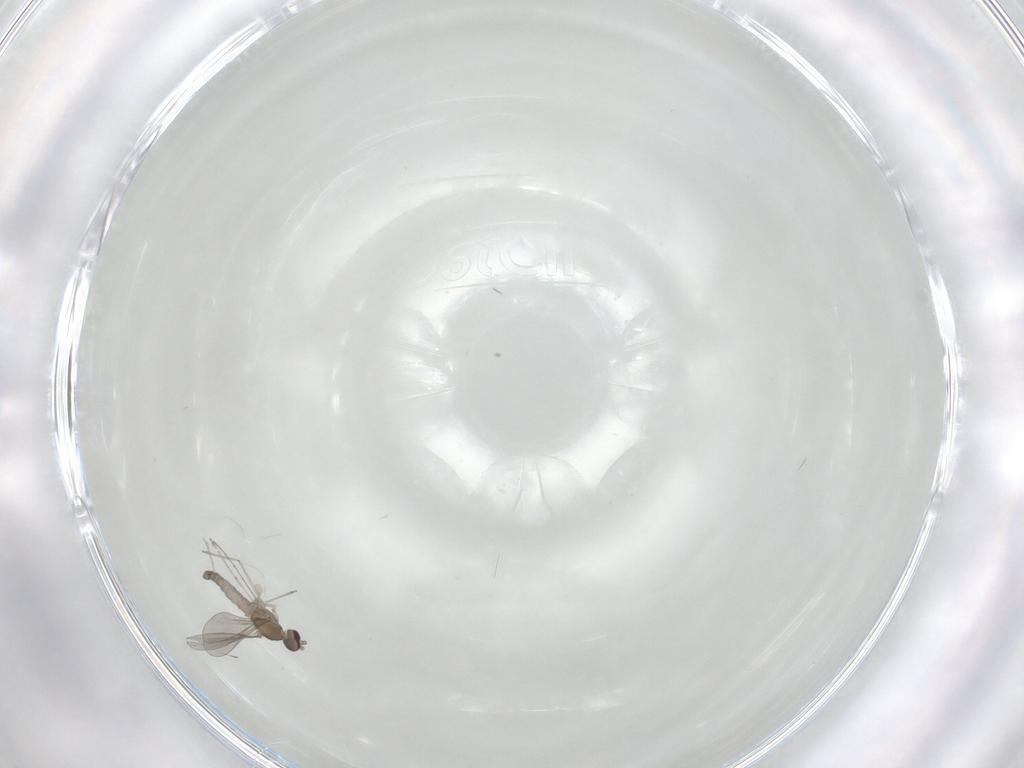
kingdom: Animalia
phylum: Arthropoda
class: Insecta
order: Diptera
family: Cecidomyiidae
